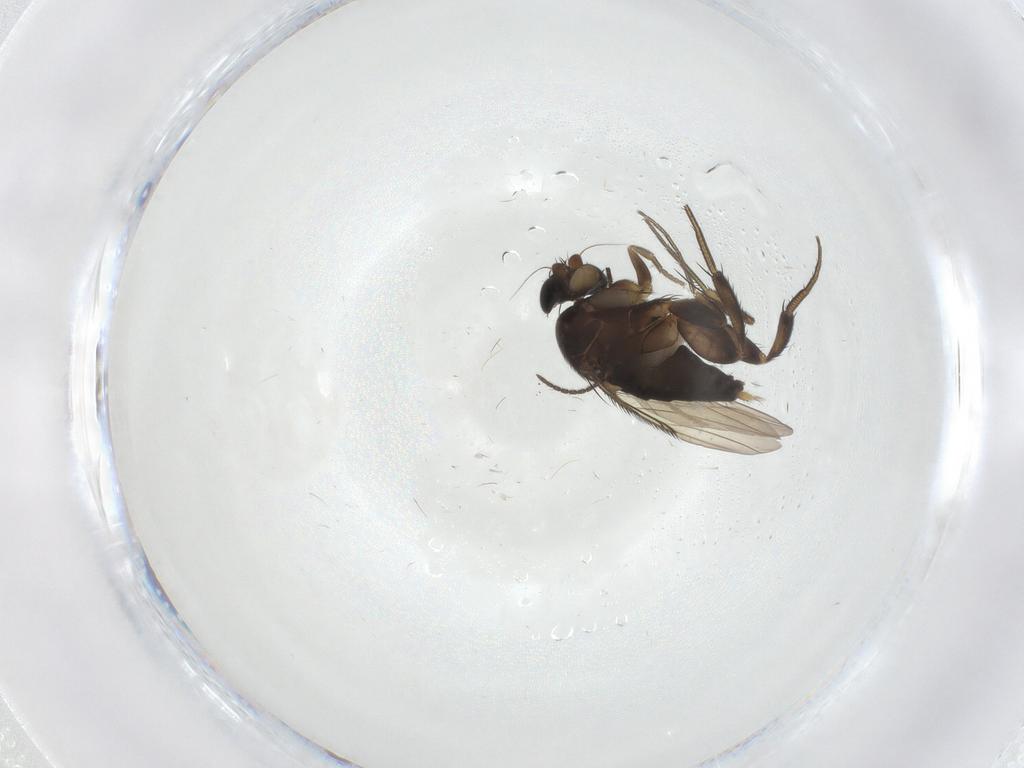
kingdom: Animalia
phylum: Arthropoda
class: Insecta
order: Diptera
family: Phoridae
